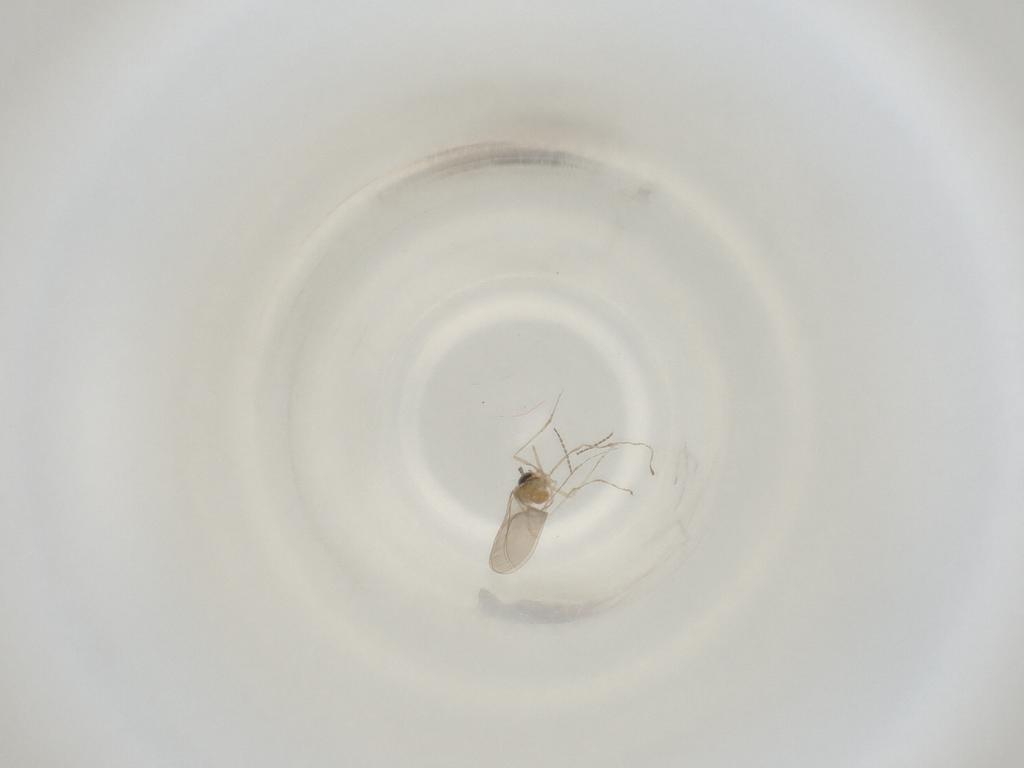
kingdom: Animalia
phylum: Arthropoda
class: Insecta
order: Diptera
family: Cecidomyiidae
